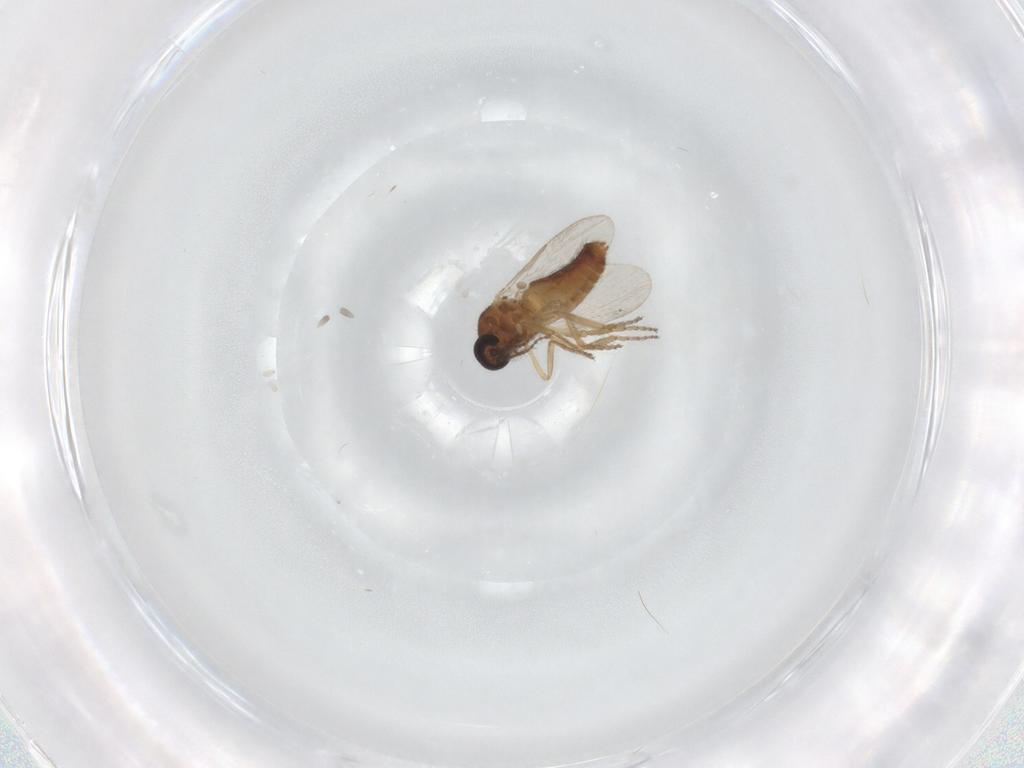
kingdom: Animalia
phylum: Arthropoda
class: Insecta
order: Diptera
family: Ceratopogonidae
